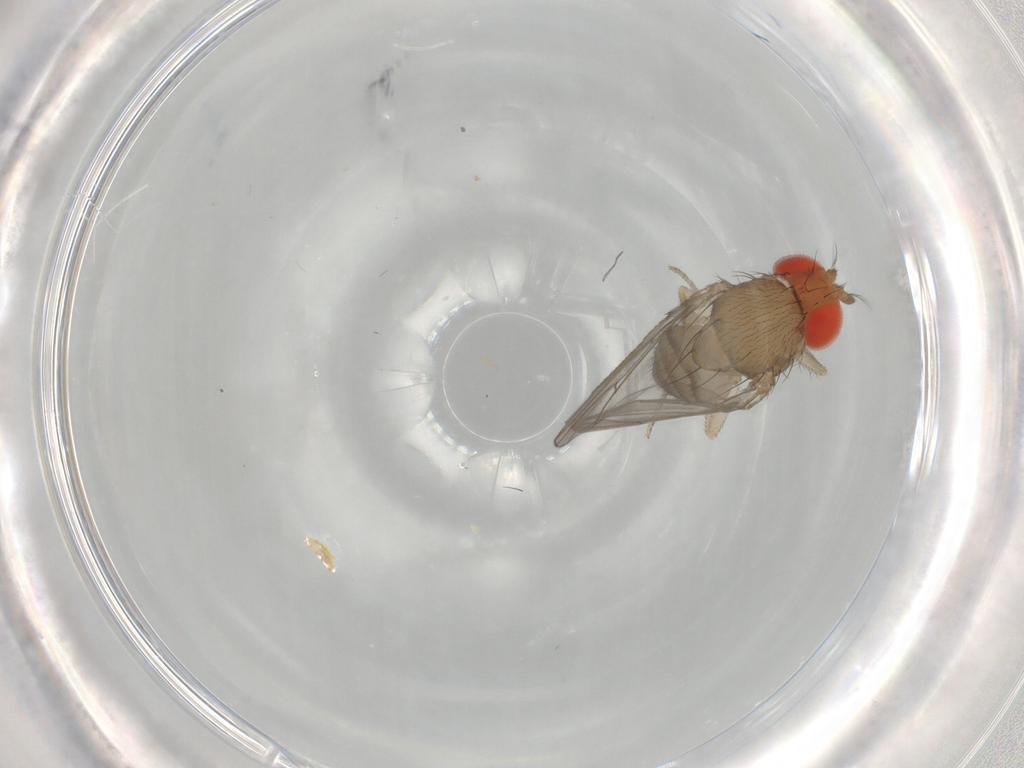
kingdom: Animalia
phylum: Arthropoda
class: Insecta
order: Diptera
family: Drosophilidae
